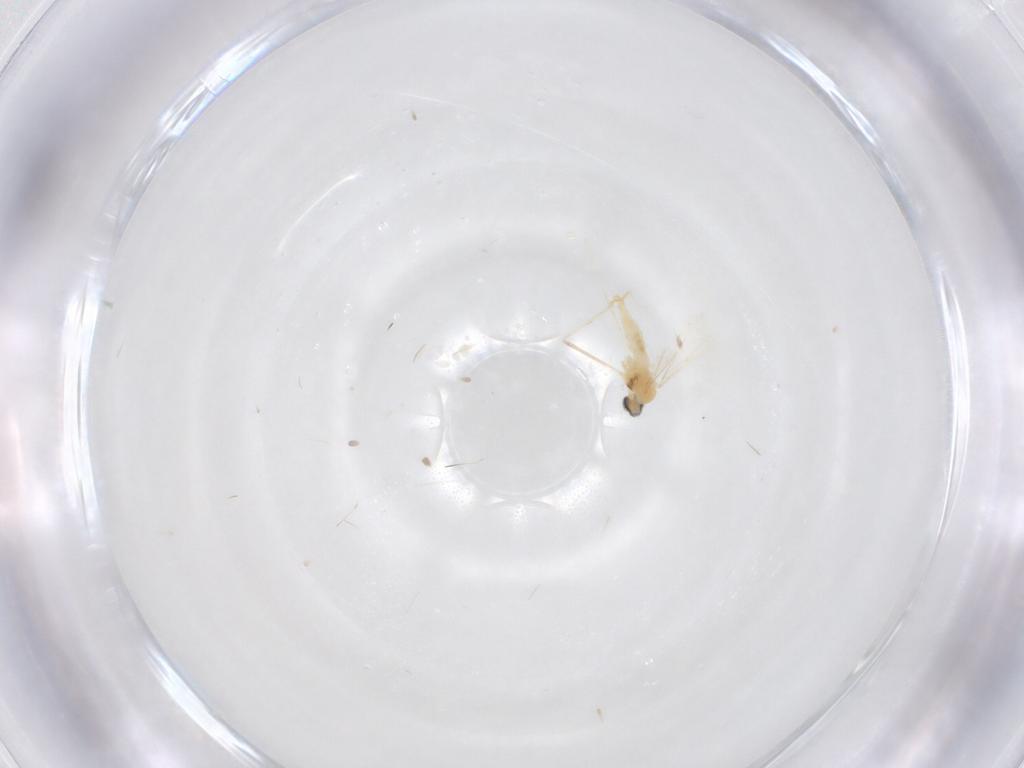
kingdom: Animalia
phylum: Arthropoda
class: Insecta
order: Diptera
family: Cecidomyiidae
